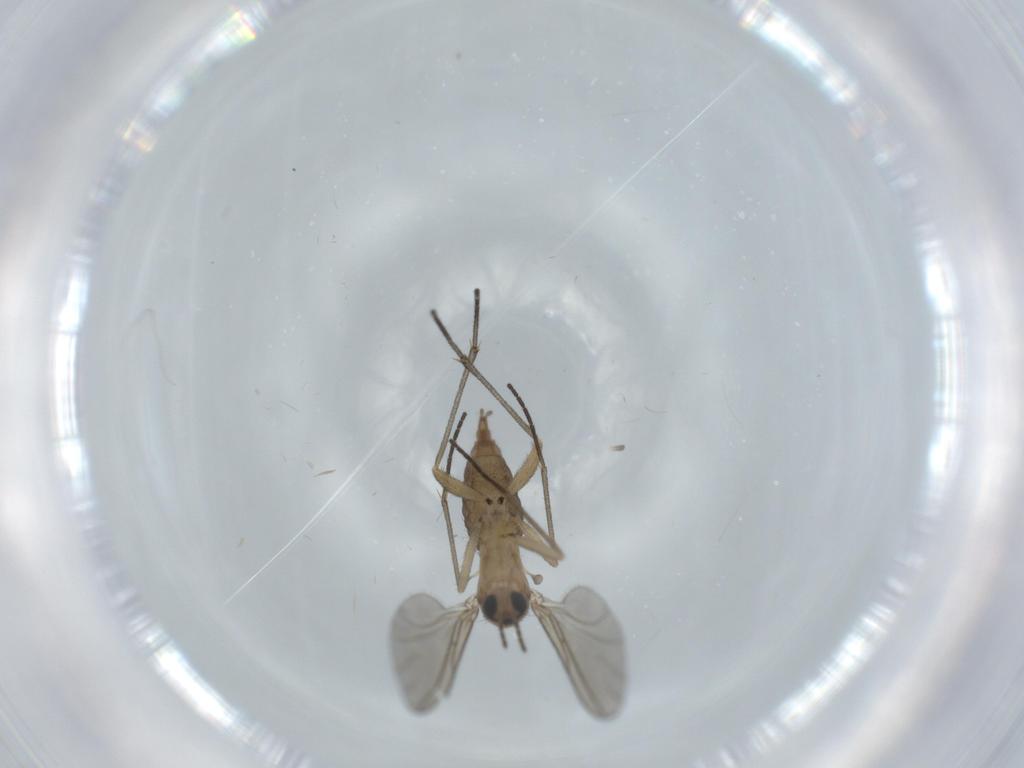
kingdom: Animalia
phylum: Arthropoda
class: Insecta
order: Diptera
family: Sciaridae
